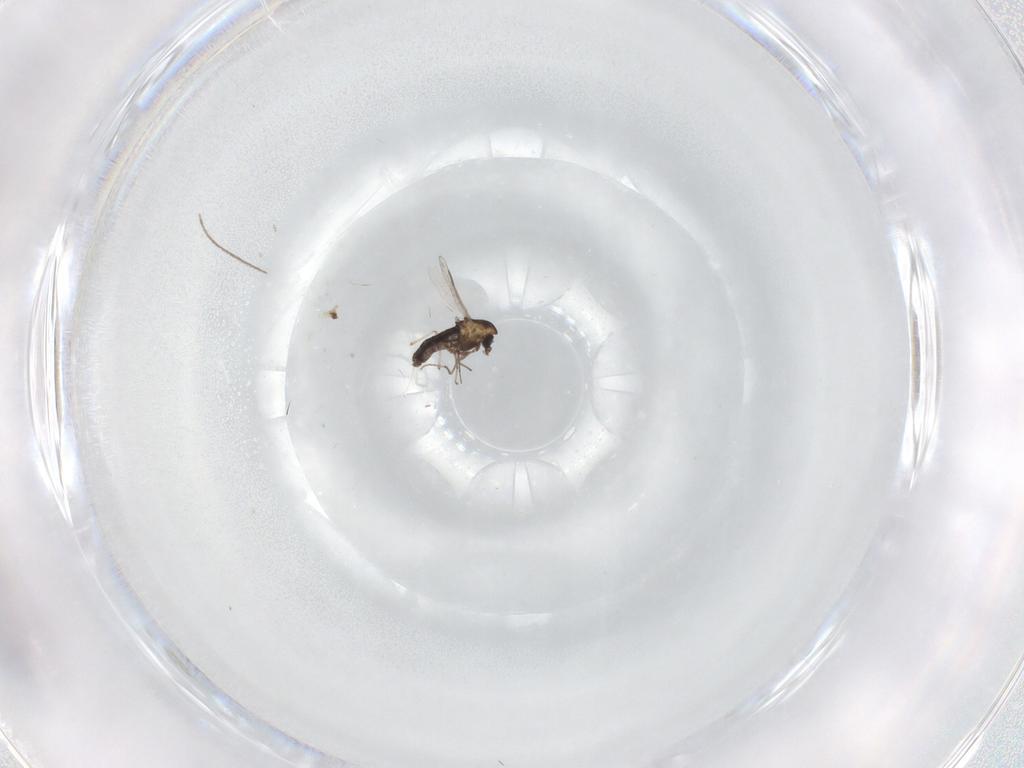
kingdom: Animalia
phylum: Arthropoda
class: Insecta
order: Diptera
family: Chironomidae
